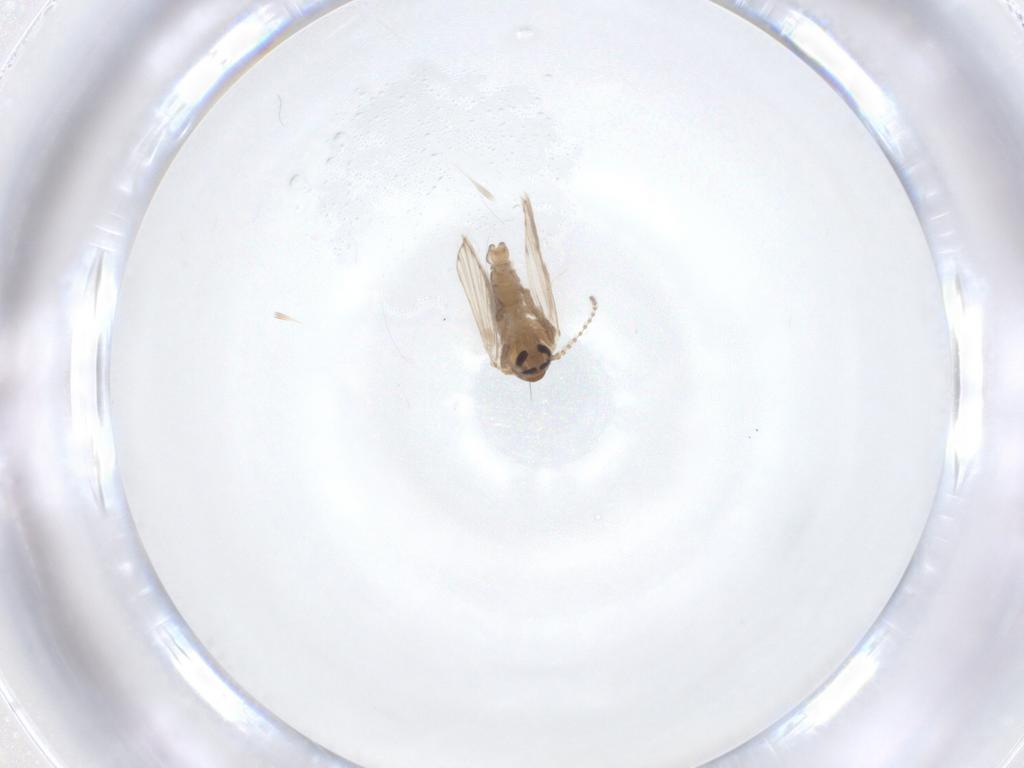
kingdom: Animalia
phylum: Arthropoda
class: Insecta
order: Diptera
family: Psychodidae
